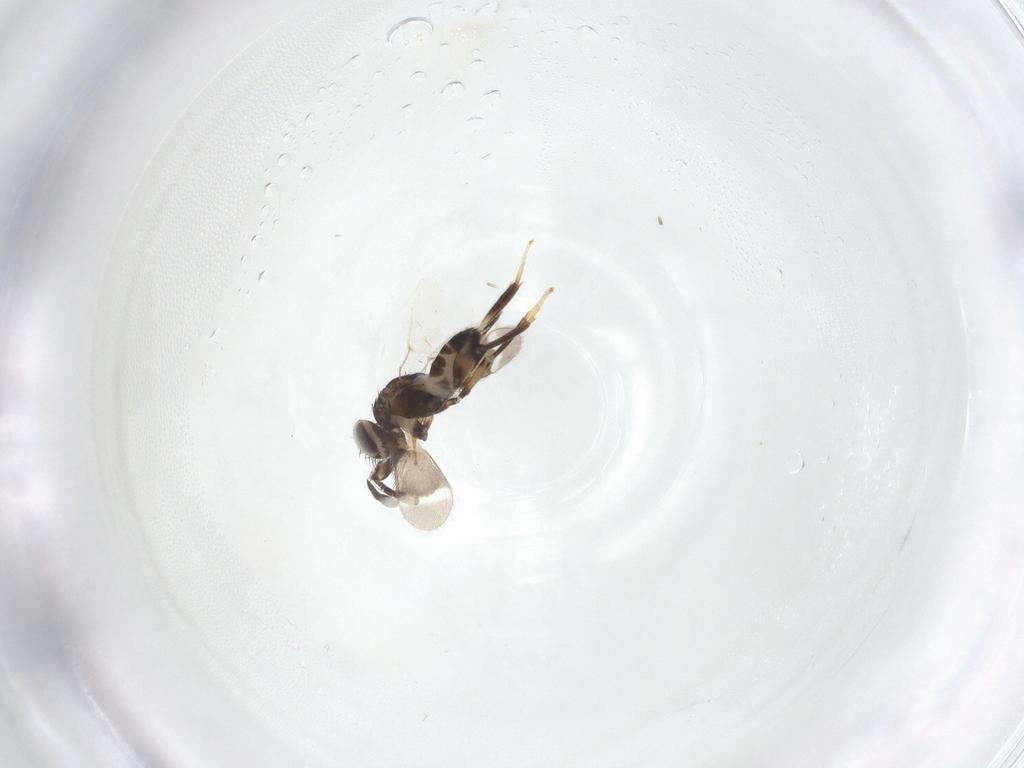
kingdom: Animalia
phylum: Arthropoda
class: Insecta
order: Hymenoptera
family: Aphelinidae
